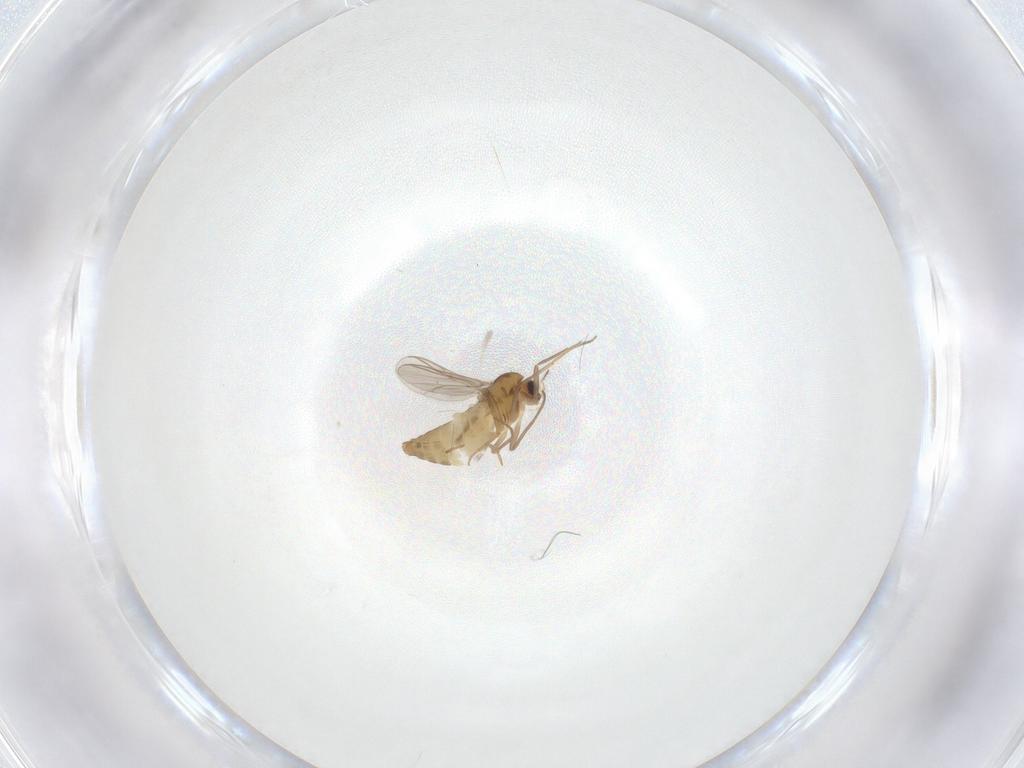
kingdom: Animalia
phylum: Arthropoda
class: Insecta
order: Diptera
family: Chironomidae
